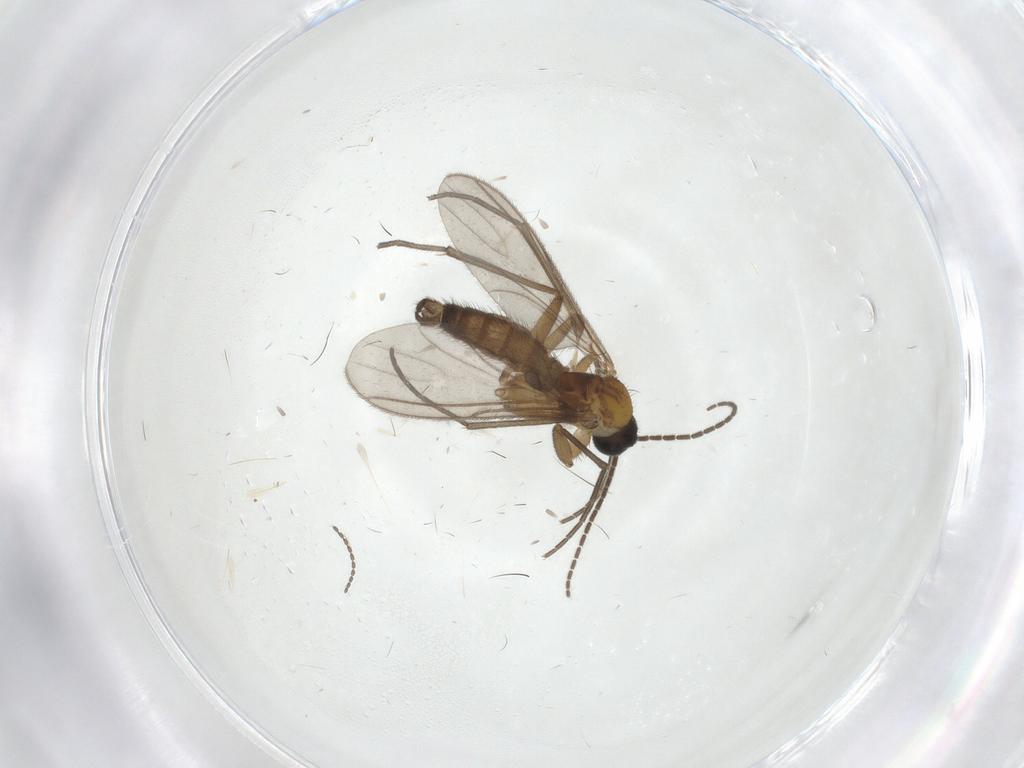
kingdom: Animalia
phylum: Arthropoda
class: Insecta
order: Diptera
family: Sciaridae
